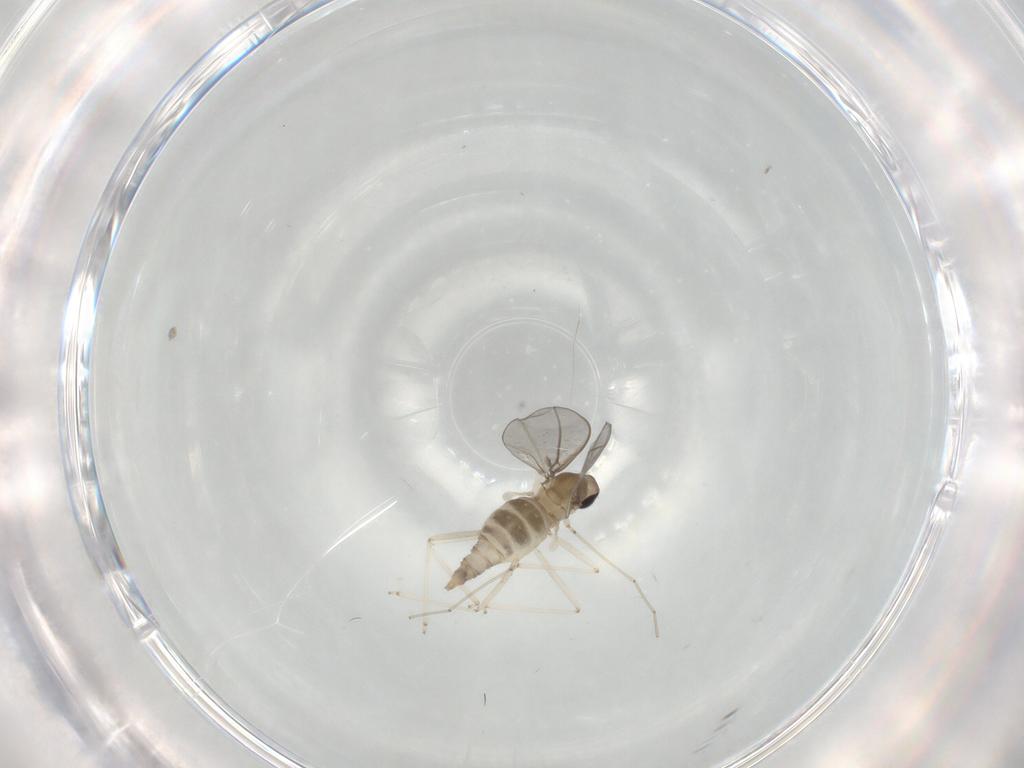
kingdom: Animalia
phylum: Arthropoda
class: Insecta
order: Diptera
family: Cecidomyiidae
